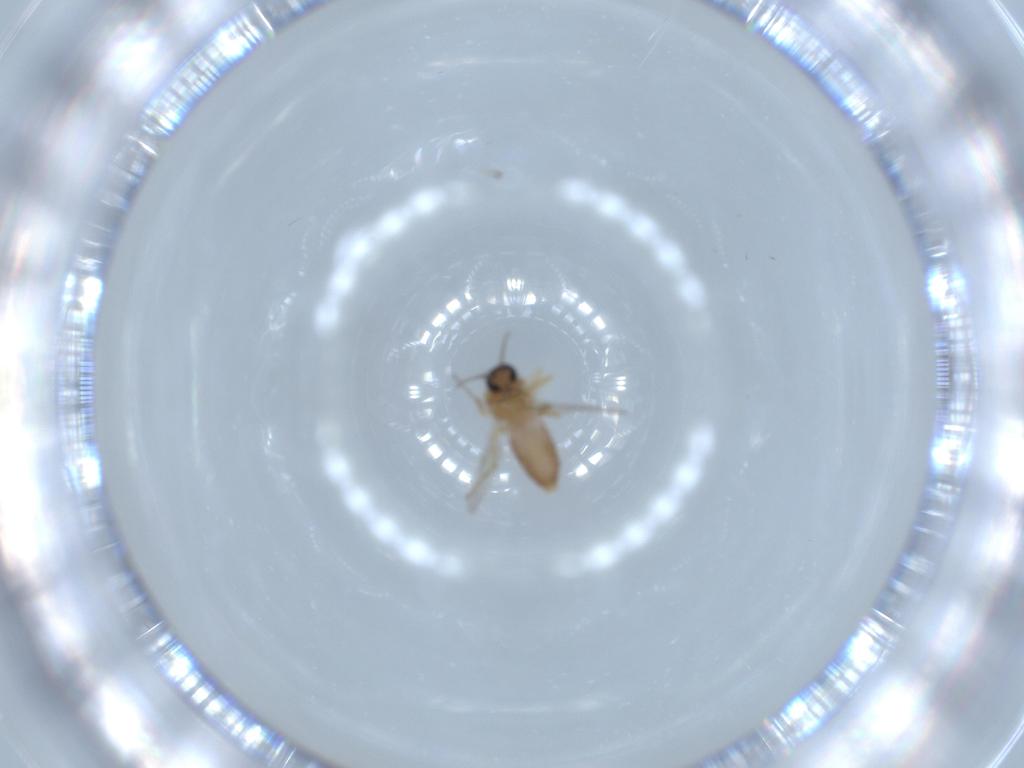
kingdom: Animalia
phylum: Arthropoda
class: Insecta
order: Diptera
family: Ceratopogonidae
